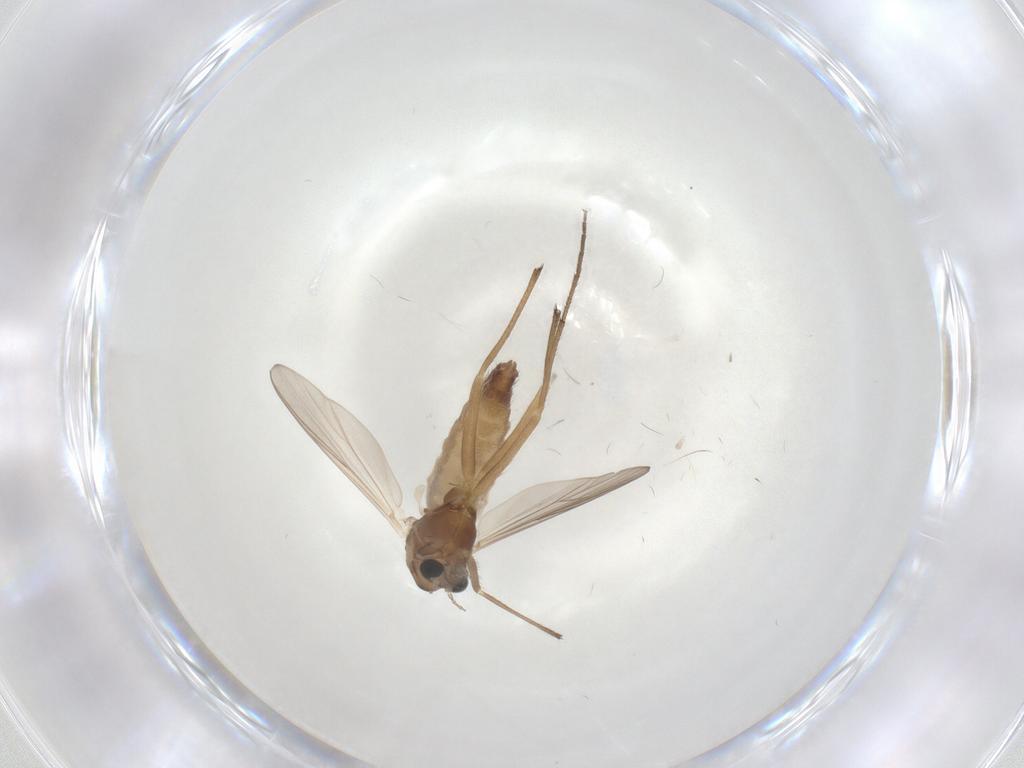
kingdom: Animalia
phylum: Arthropoda
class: Insecta
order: Diptera
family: Chironomidae
